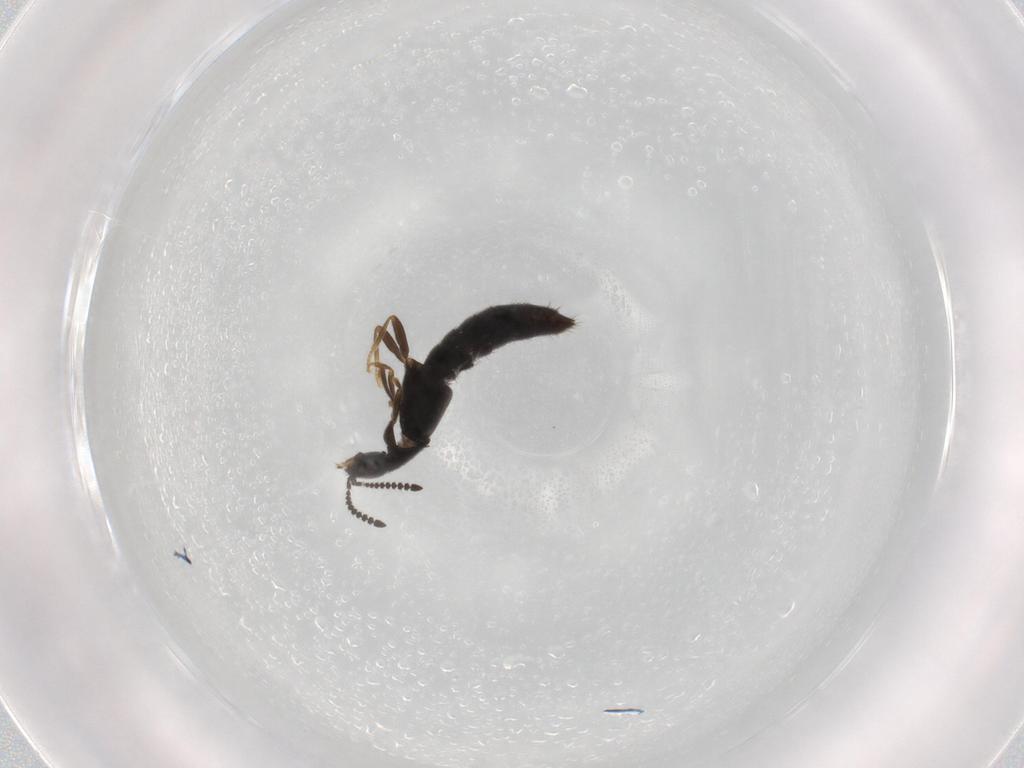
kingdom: Animalia
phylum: Arthropoda
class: Insecta
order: Coleoptera
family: Staphylinidae
